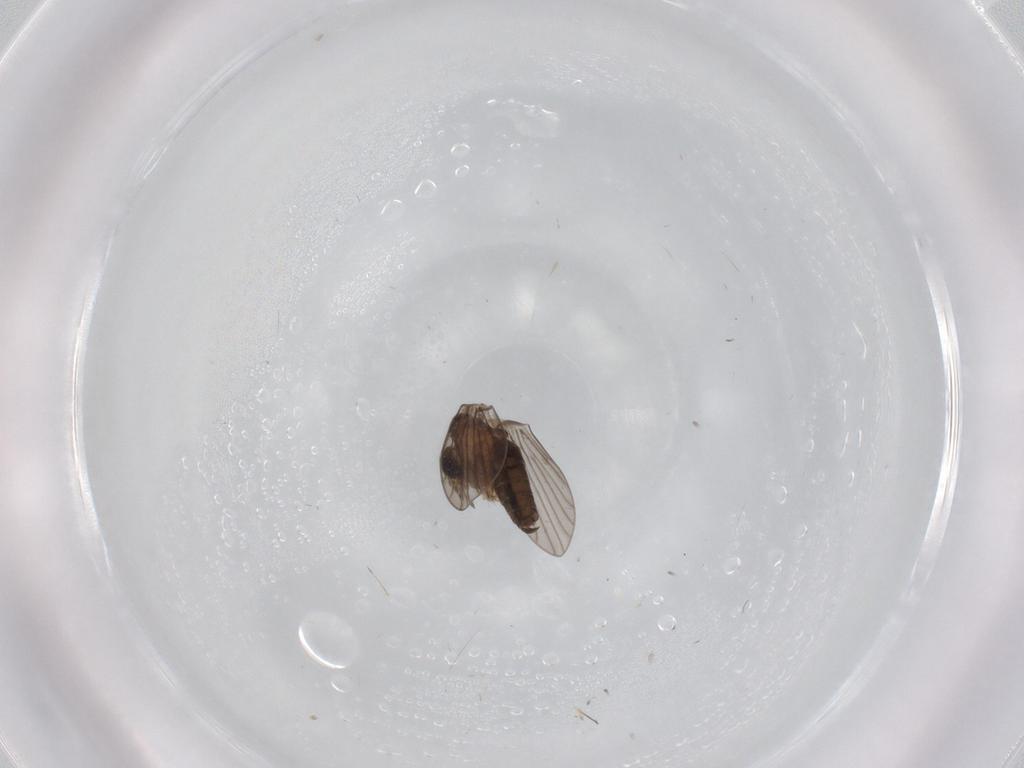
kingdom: Animalia
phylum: Arthropoda
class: Insecta
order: Diptera
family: Psychodidae
